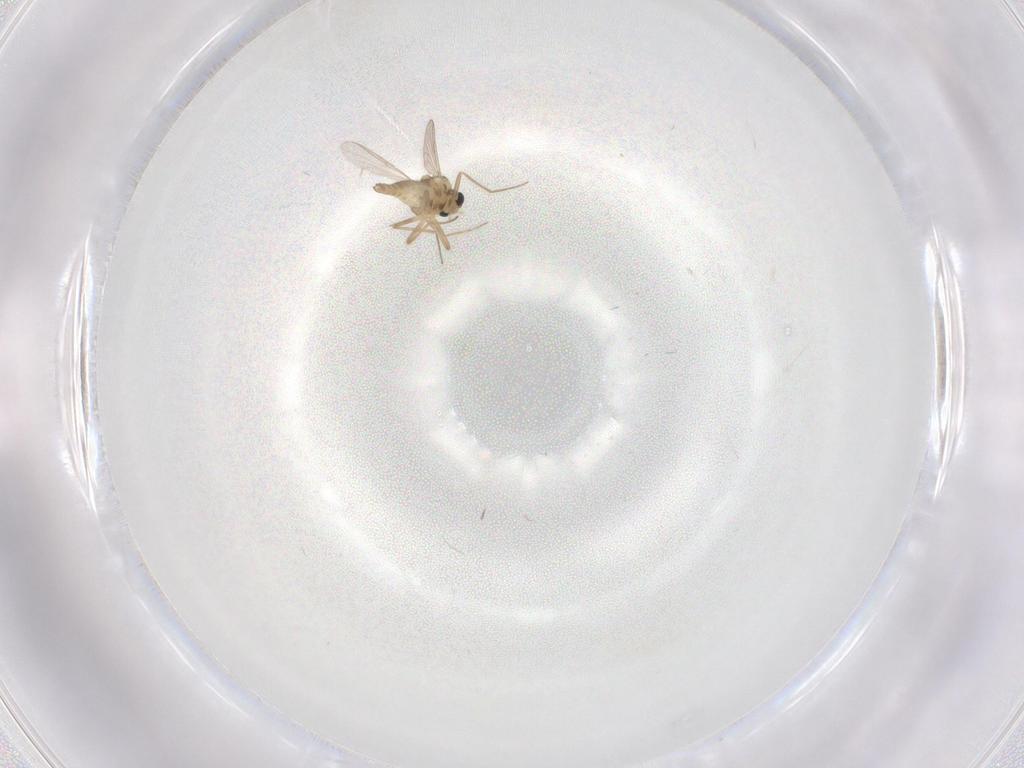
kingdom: Animalia
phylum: Arthropoda
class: Insecta
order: Diptera
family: Chironomidae
